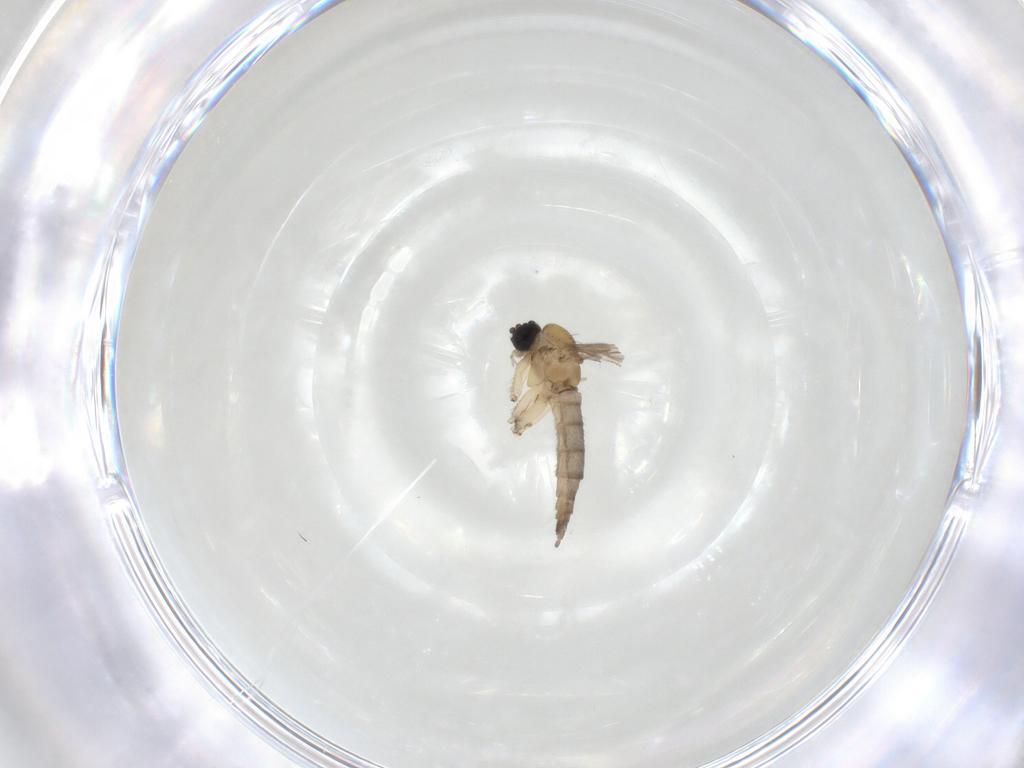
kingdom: Animalia
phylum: Arthropoda
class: Insecta
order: Diptera
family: Sciaridae
